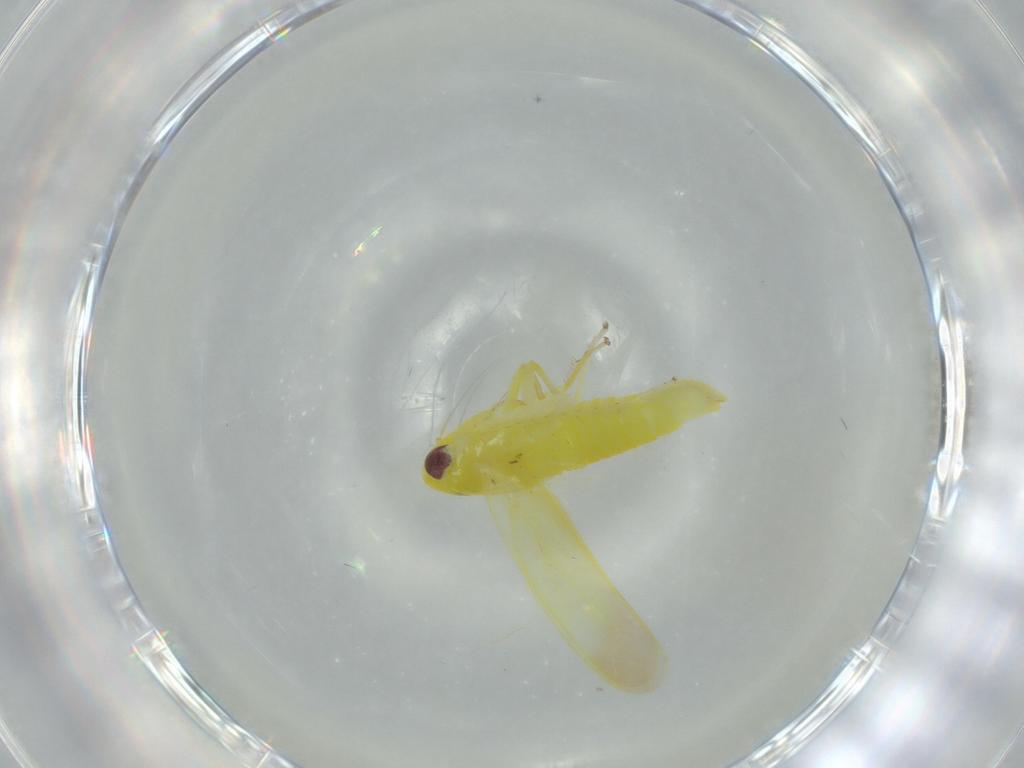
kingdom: Animalia
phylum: Arthropoda
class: Insecta
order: Hemiptera
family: Cicadellidae
